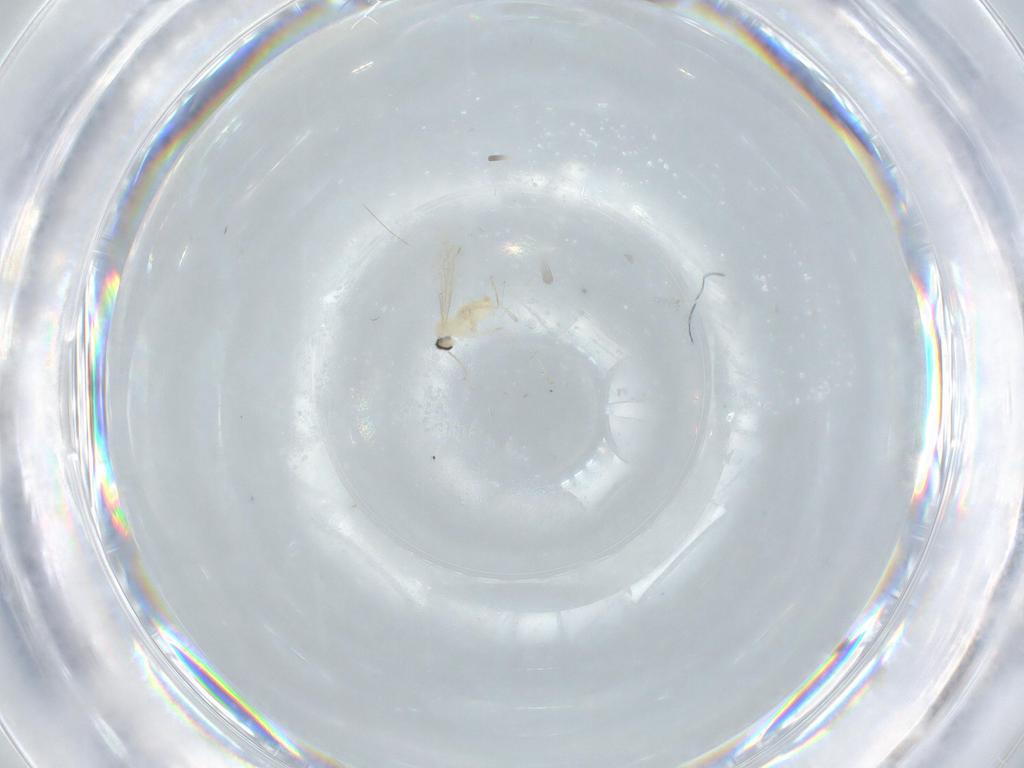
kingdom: Animalia
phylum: Arthropoda
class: Insecta
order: Diptera
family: Cecidomyiidae
